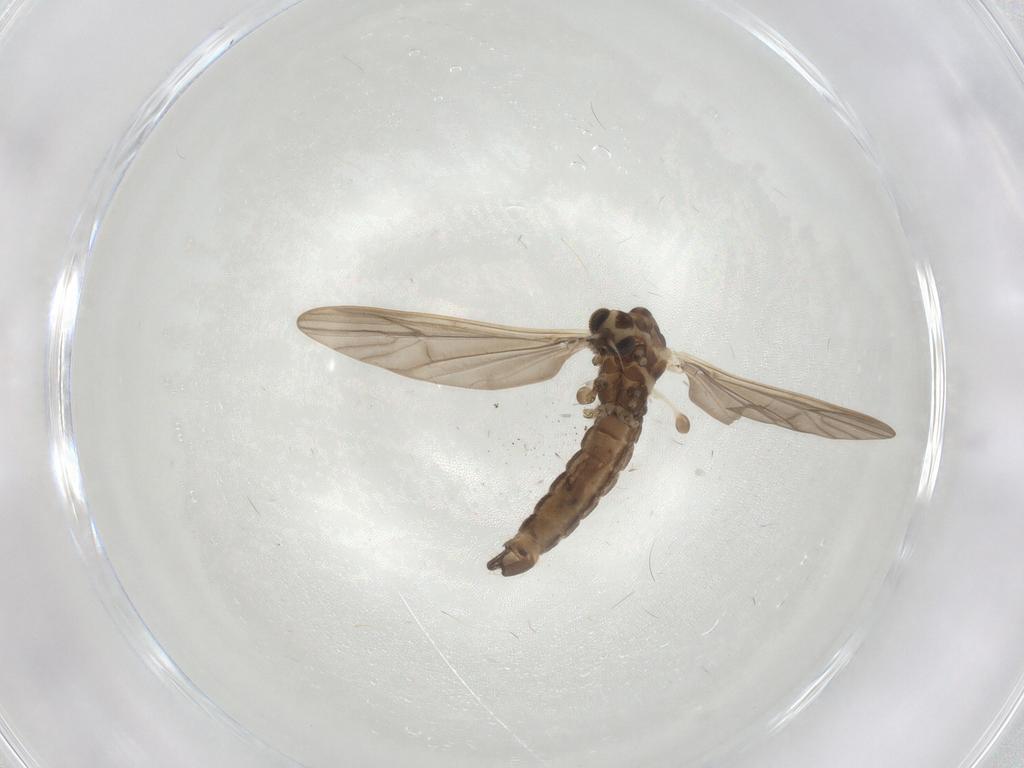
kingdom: Animalia
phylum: Arthropoda
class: Insecta
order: Diptera
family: Limoniidae
